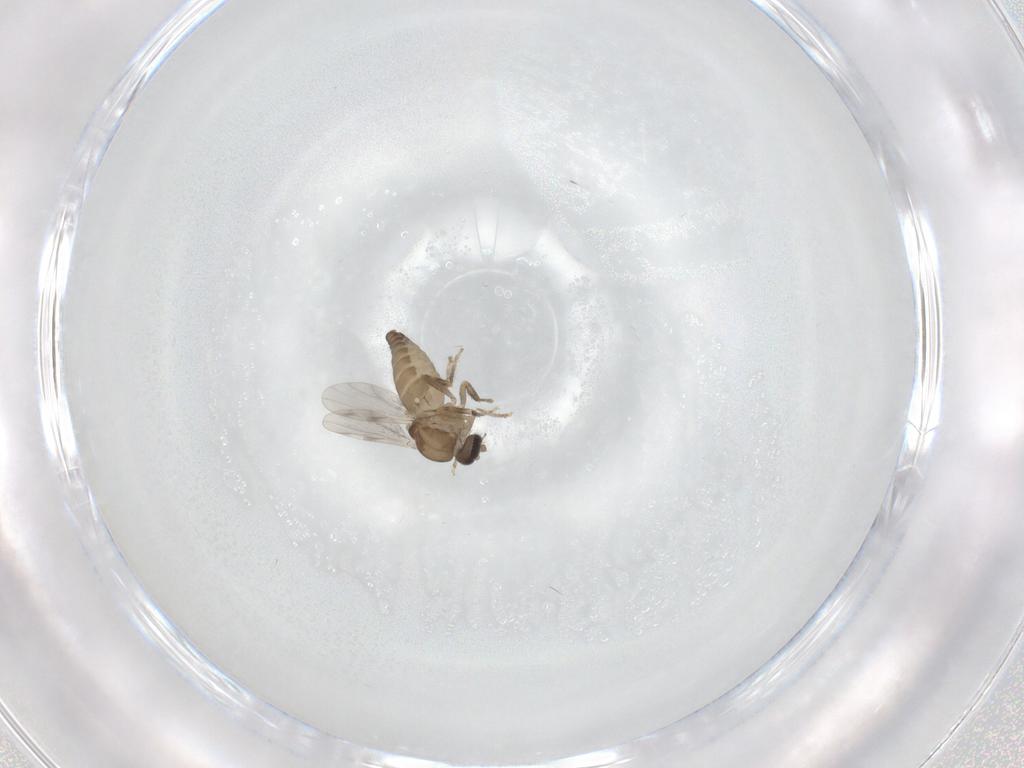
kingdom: Animalia
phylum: Arthropoda
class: Insecta
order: Diptera
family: Ceratopogonidae
